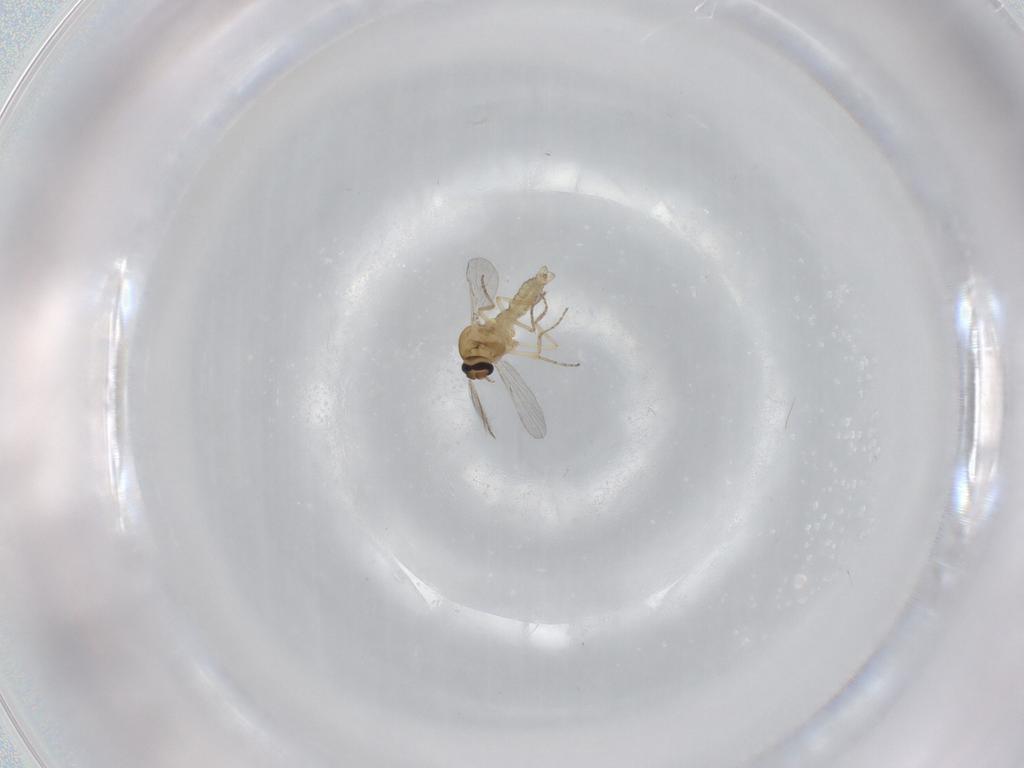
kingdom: Animalia
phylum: Arthropoda
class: Insecta
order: Diptera
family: Ceratopogonidae
